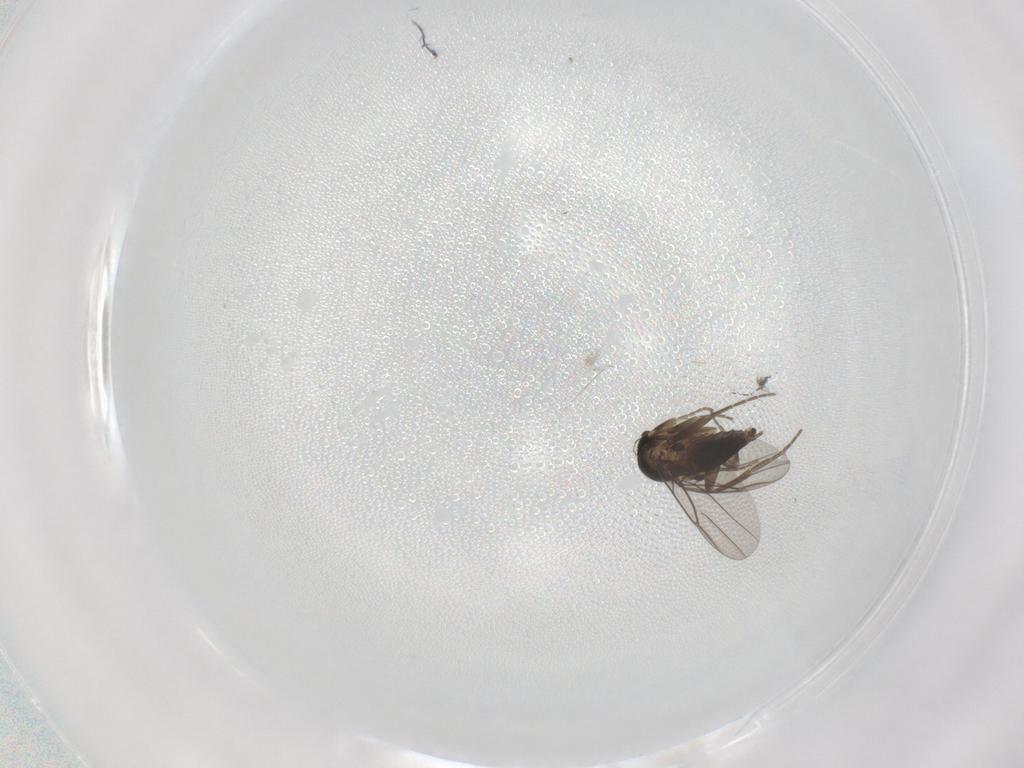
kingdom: Animalia
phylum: Arthropoda
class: Insecta
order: Diptera
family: Phoridae
